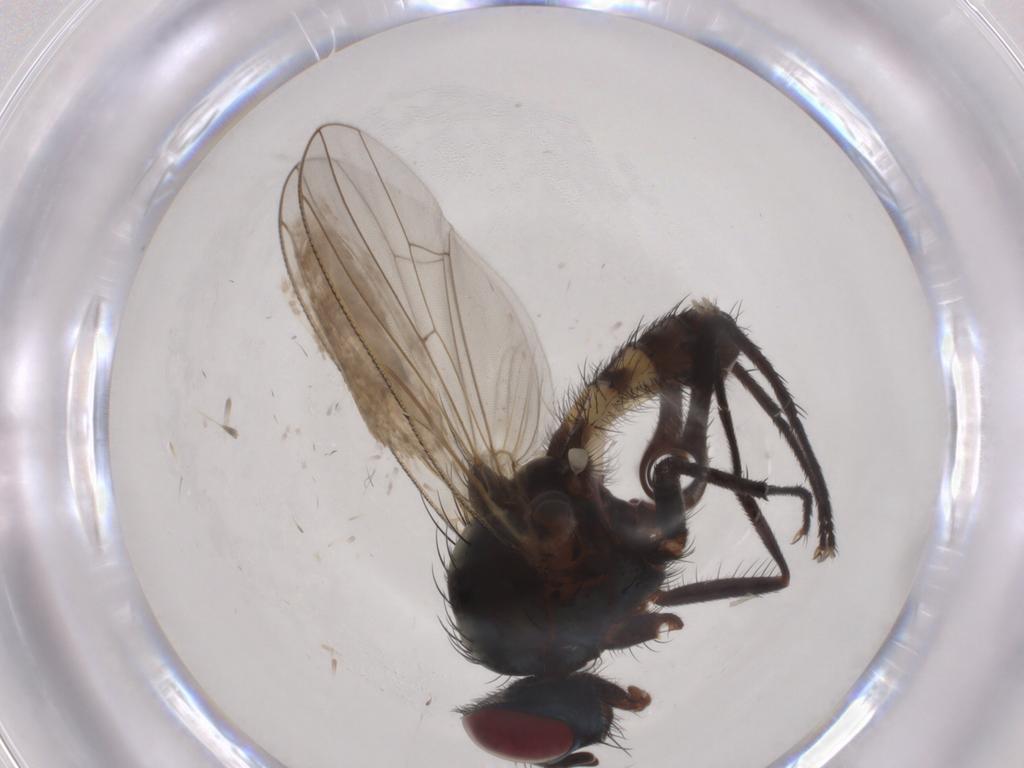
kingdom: Animalia
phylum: Arthropoda
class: Insecta
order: Diptera
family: Anthomyiidae
